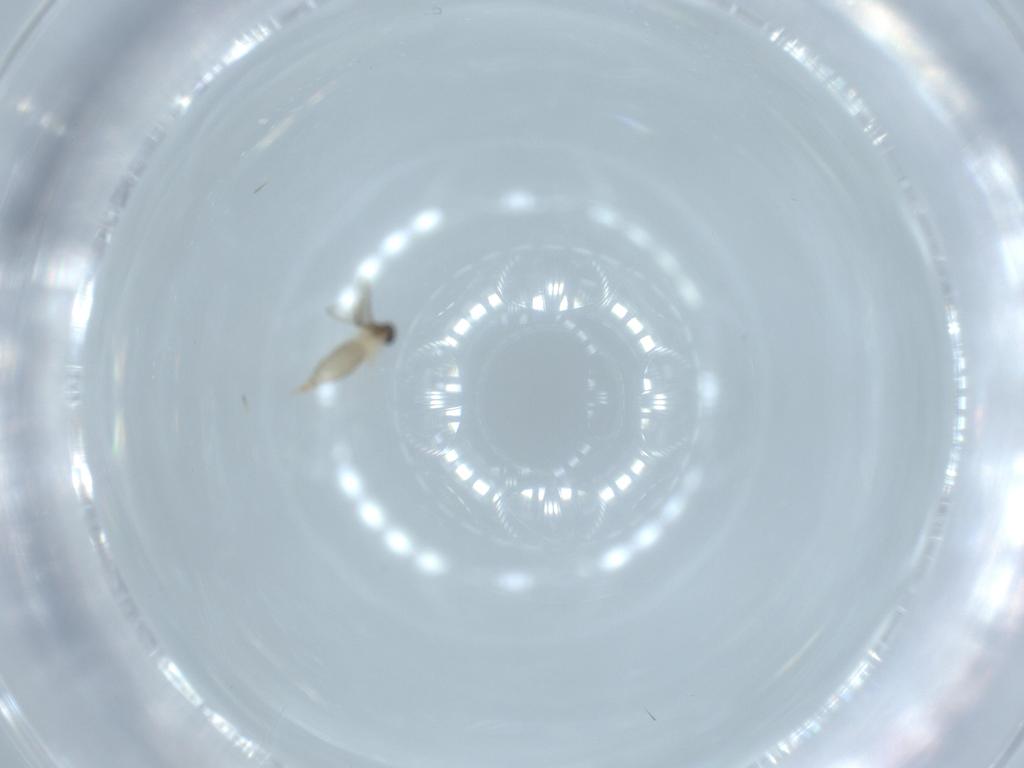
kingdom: Animalia
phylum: Arthropoda
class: Insecta
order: Diptera
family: Cecidomyiidae
